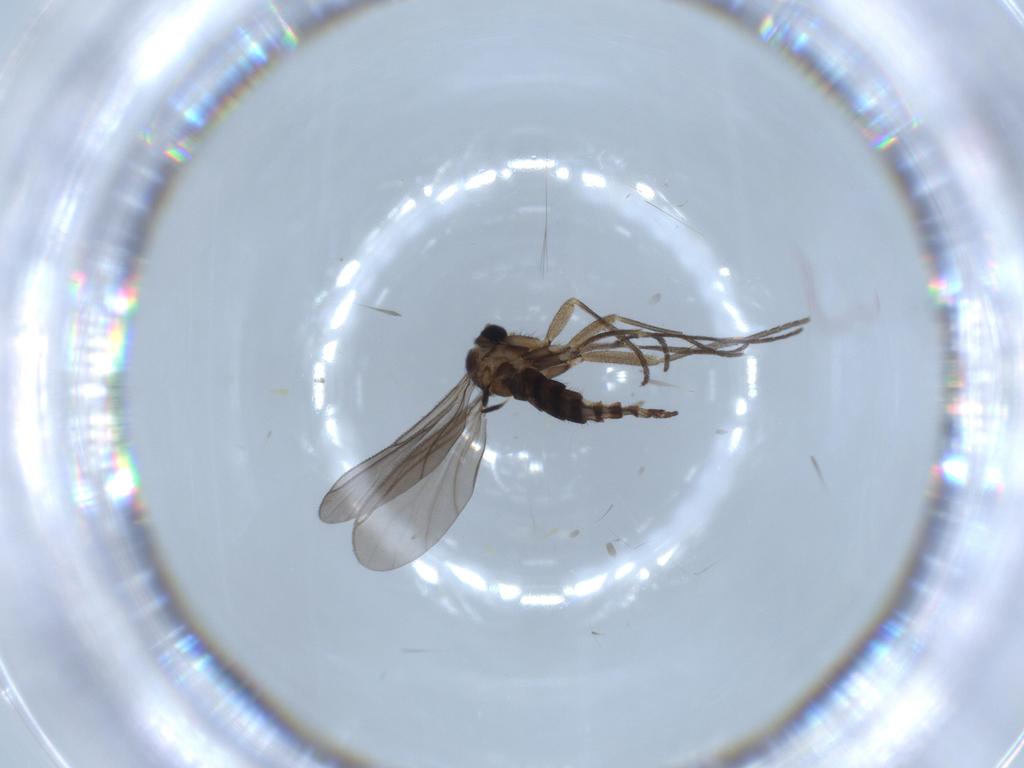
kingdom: Animalia
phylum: Arthropoda
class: Insecta
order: Diptera
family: Sciaridae
